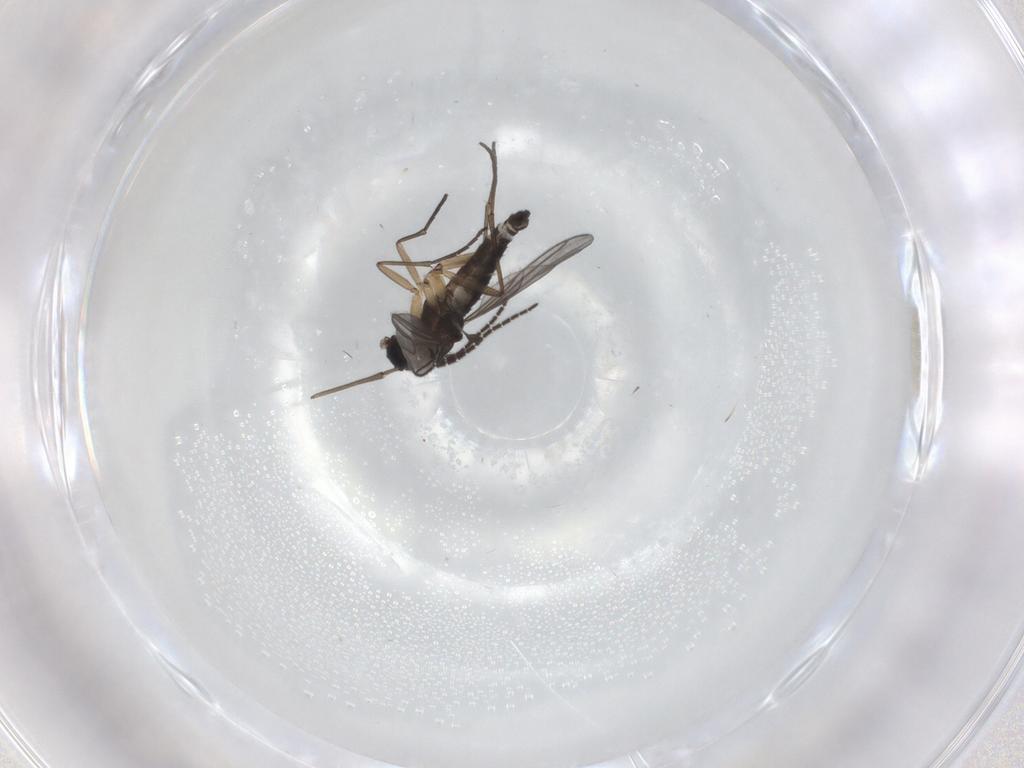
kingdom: Animalia
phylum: Arthropoda
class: Insecta
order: Diptera
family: Sciaridae
